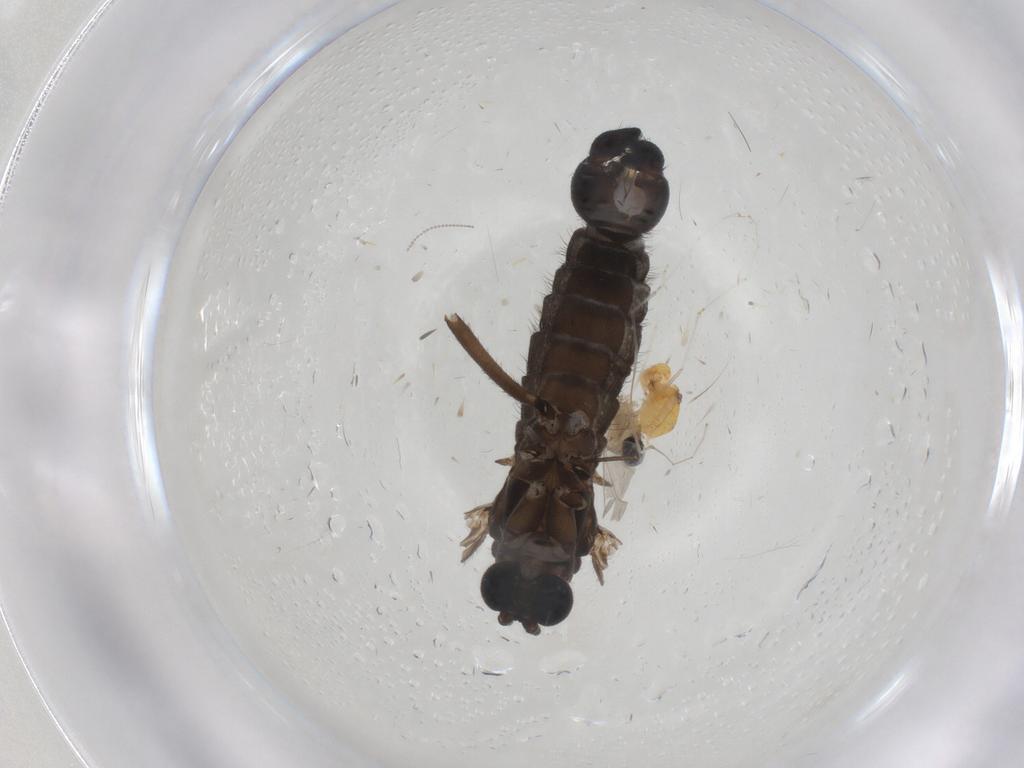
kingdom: Animalia
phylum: Arthropoda
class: Insecta
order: Diptera
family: Sciaridae
